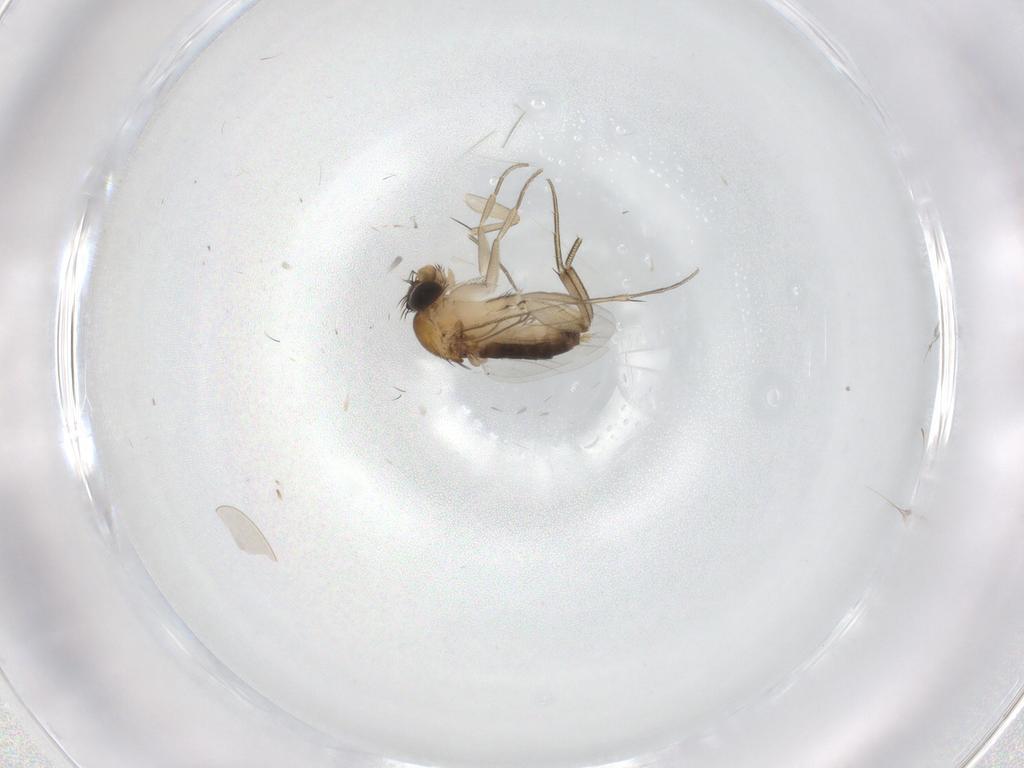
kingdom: Animalia
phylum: Arthropoda
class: Insecta
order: Diptera
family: Phoridae
